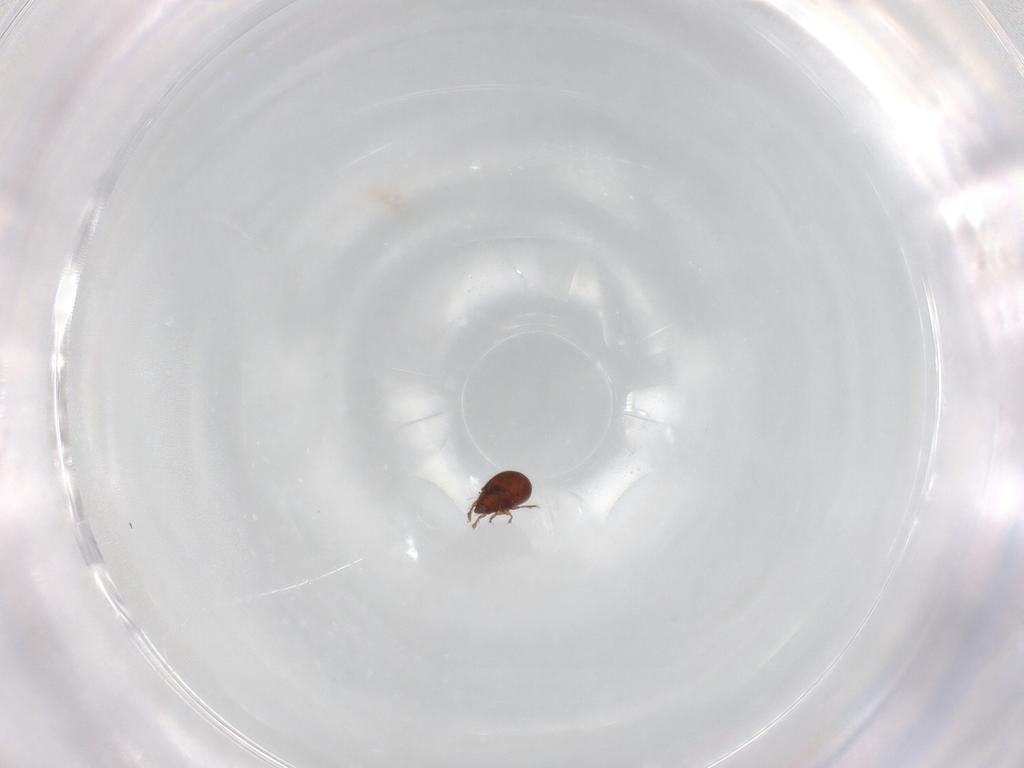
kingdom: Animalia
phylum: Arthropoda
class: Arachnida
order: Sarcoptiformes
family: Ceratozetidae
